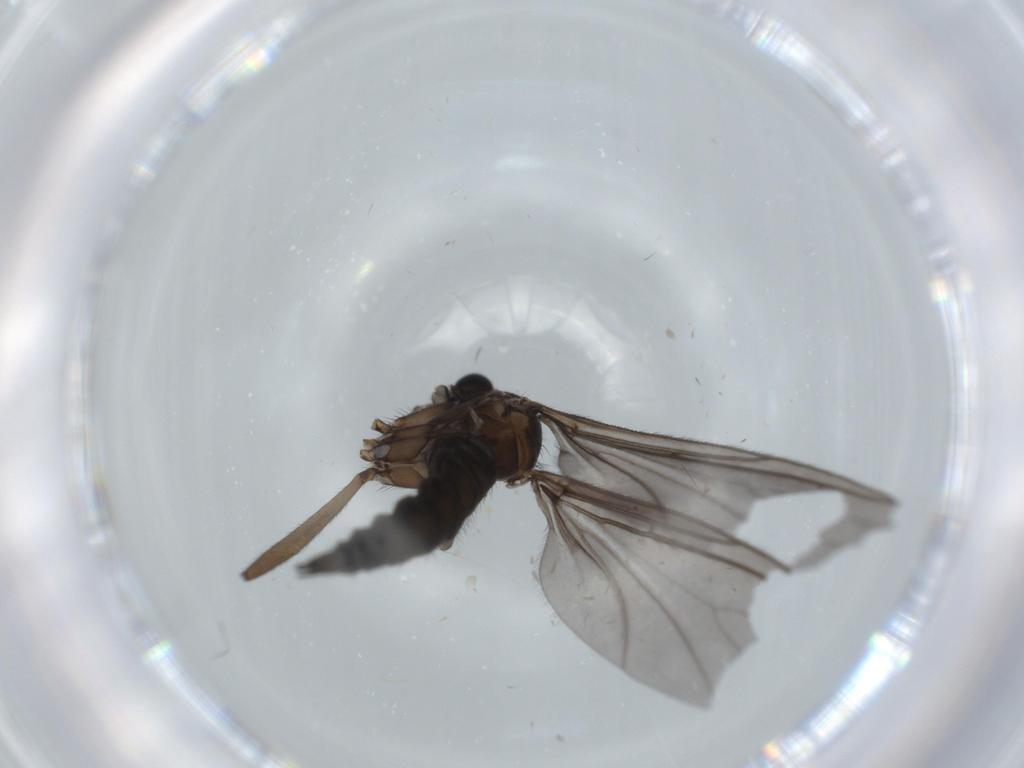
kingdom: Animalia
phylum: Arthropoda
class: Insecta
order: Diptera
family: Sciaridae
